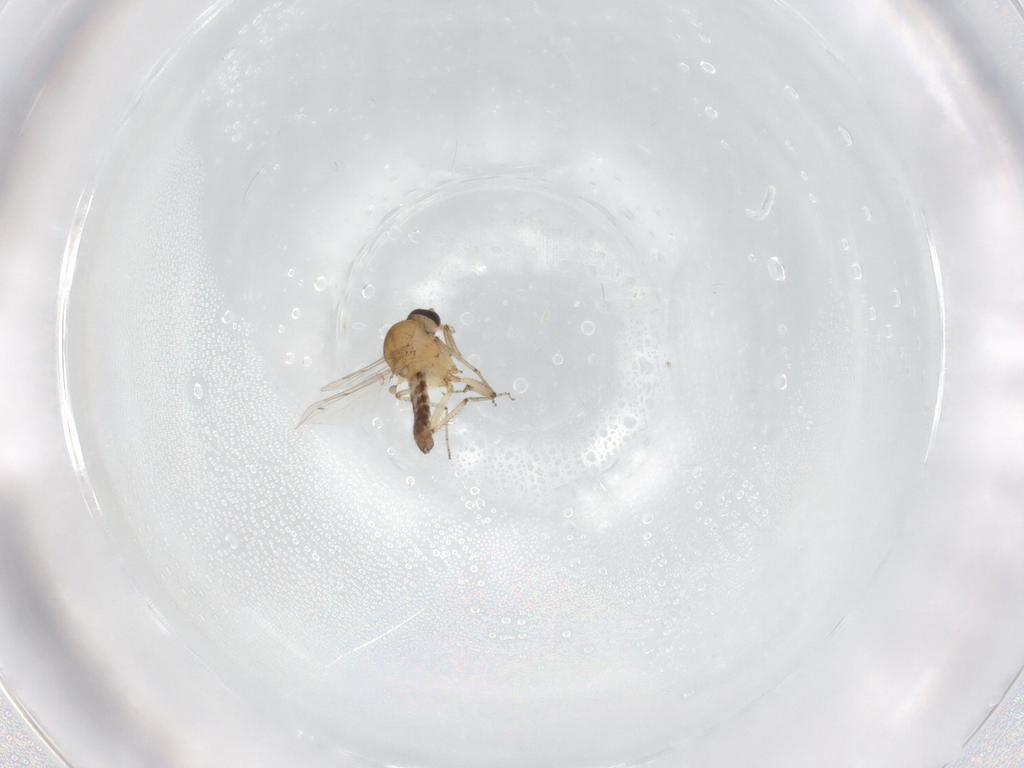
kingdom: Animalia
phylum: Arthropoda
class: Insecta
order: Diptera
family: Ceratopogonidae
